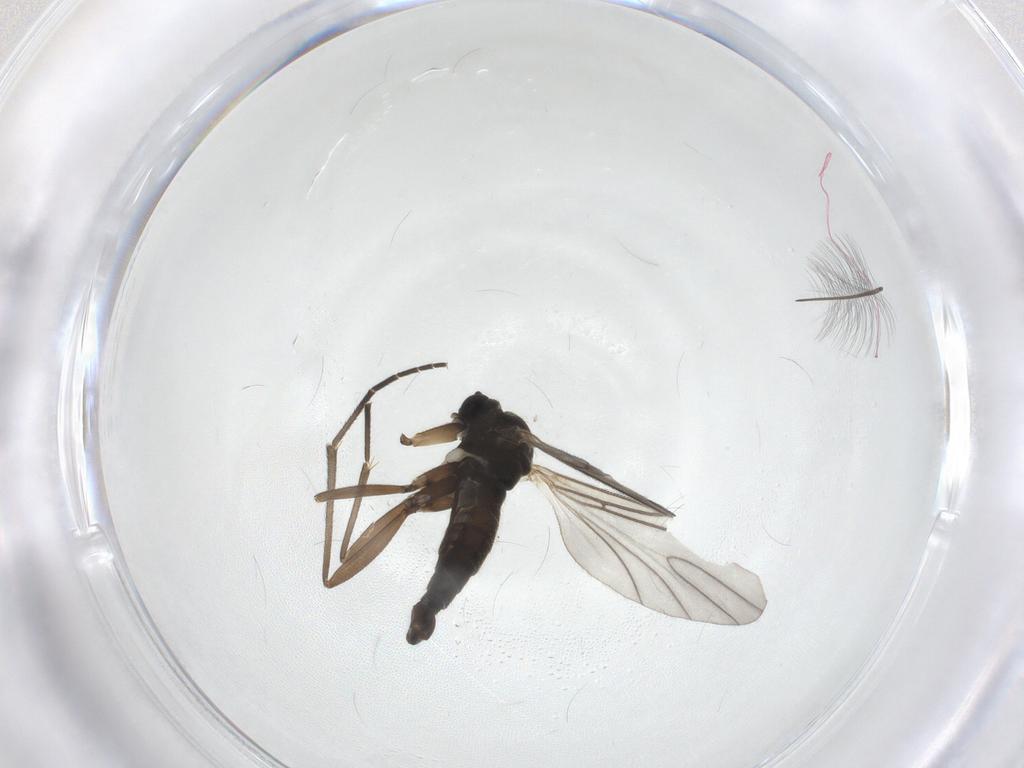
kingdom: Animalia
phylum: Arthropoda
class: Insecta
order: Diptera
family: Sciaridae
